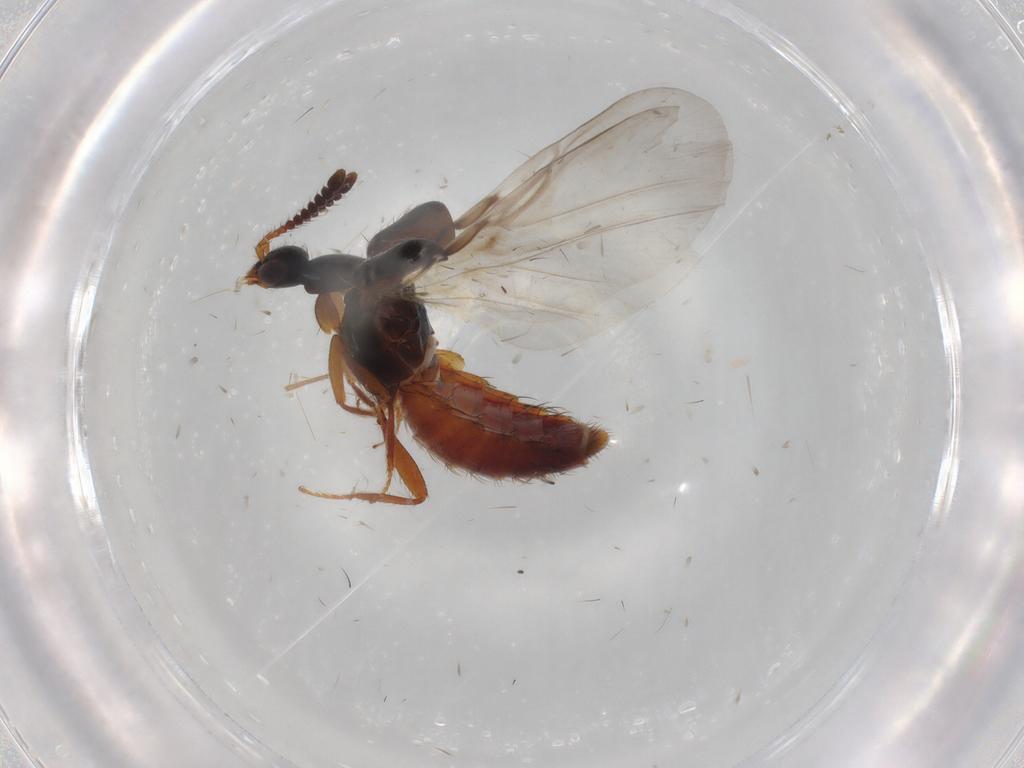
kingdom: Animalia
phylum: Arthropoda
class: Insecta
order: Coleoptera
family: Staphylinidae
